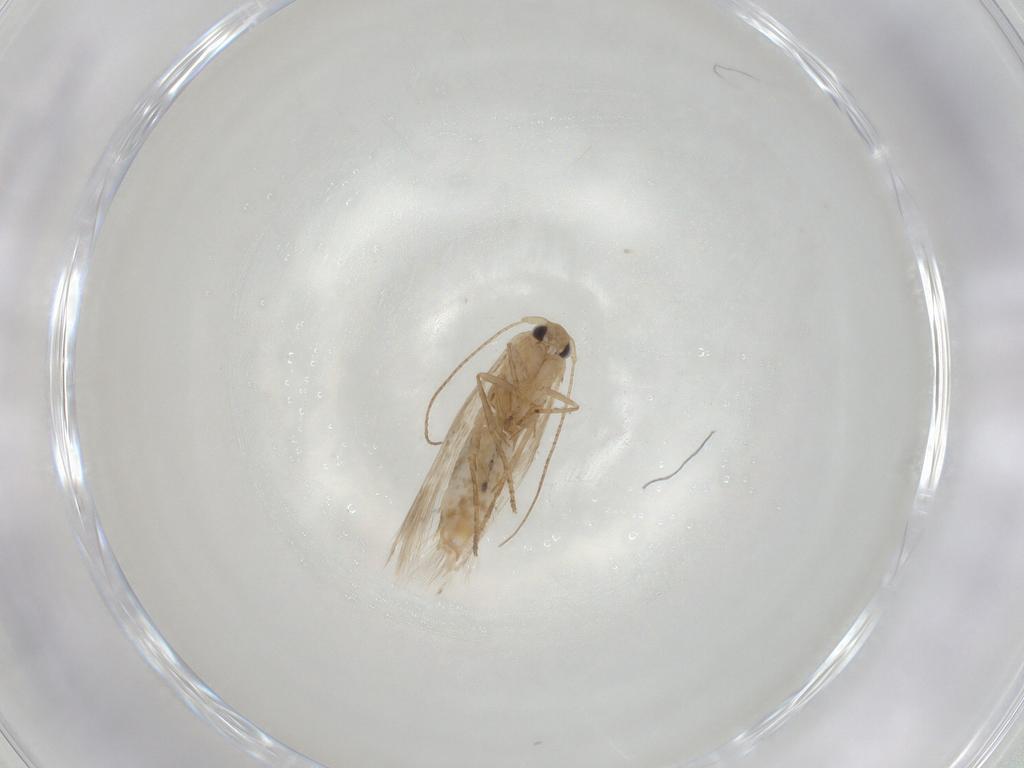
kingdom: Animalia
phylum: Arthropoda
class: Insecta
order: Lepidoptera
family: Bucculatricidae
